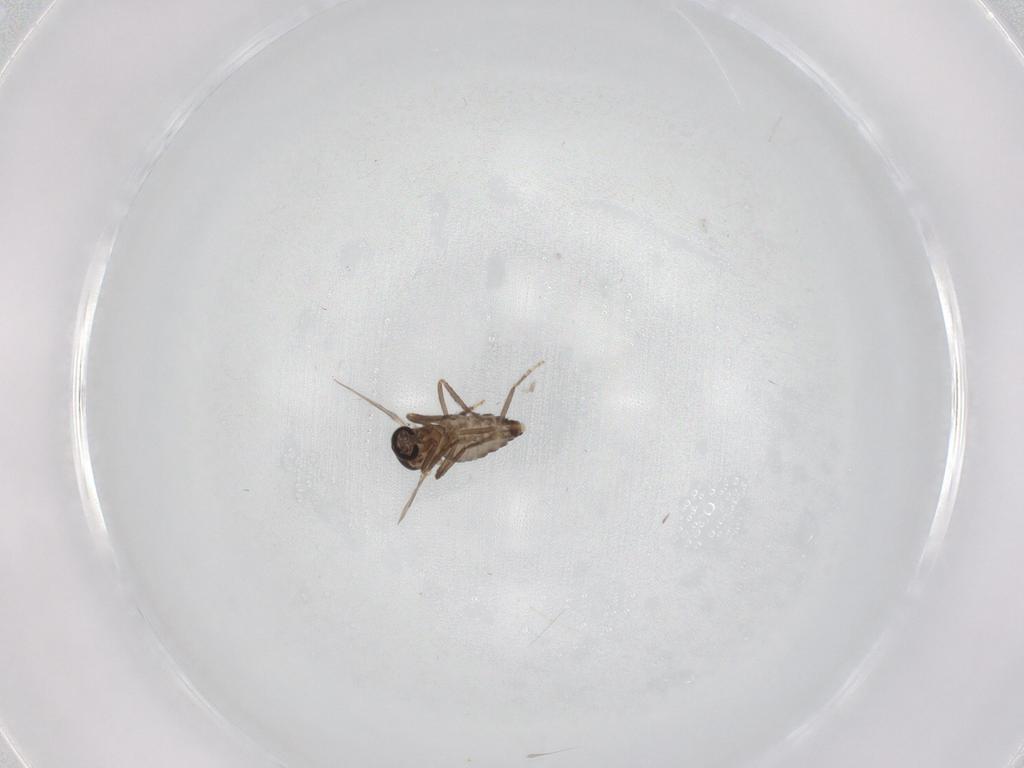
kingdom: Animalia
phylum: Arthropoda
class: Insecta
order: Diptera
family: Ceratopogonidae
